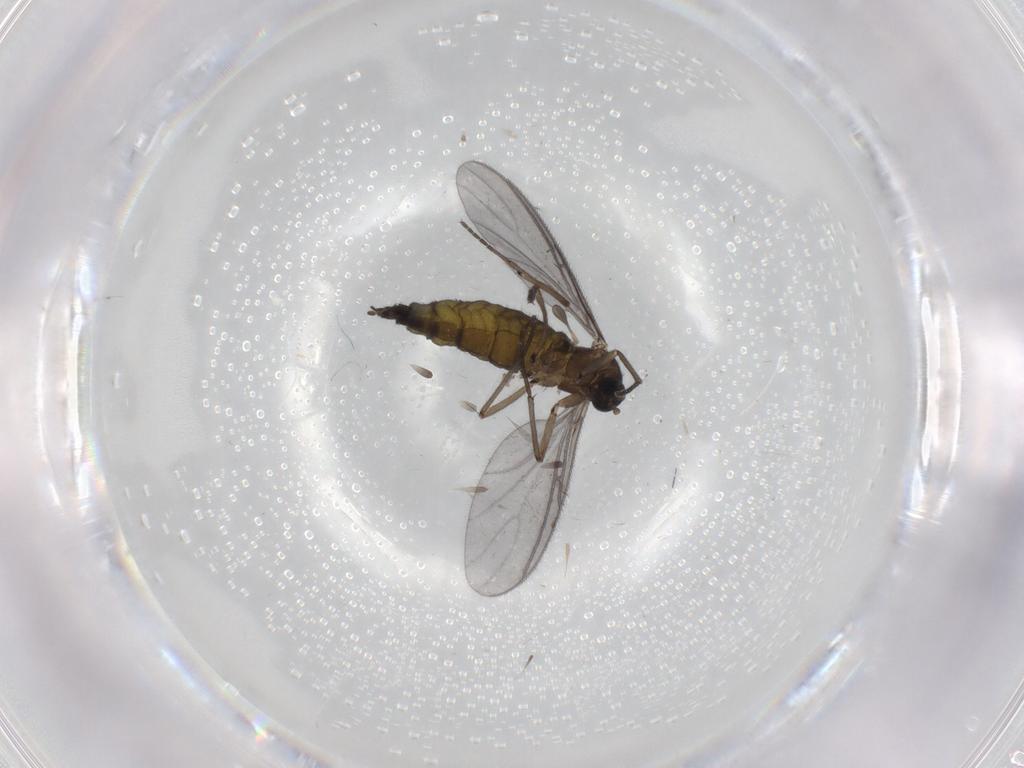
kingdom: Animalia
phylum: Arthropoda
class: Insecta
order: Diptera
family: Sciaridae
